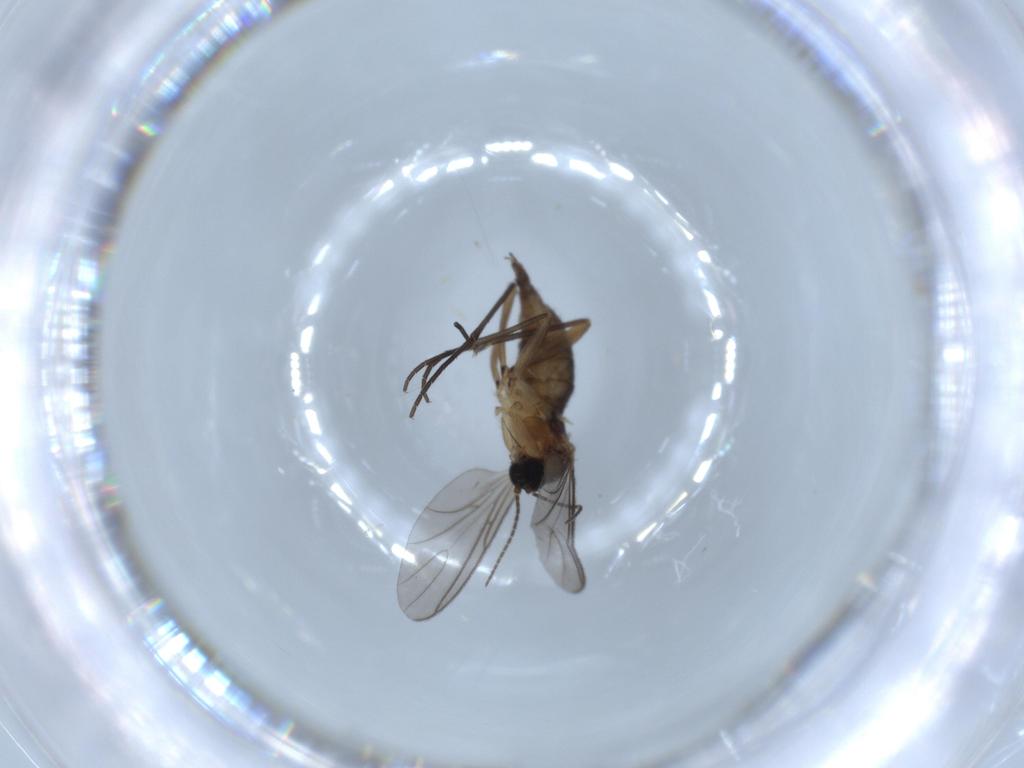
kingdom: Animalia
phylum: Arthropoda
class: Insecta
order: Diptera
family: Sciaridae
